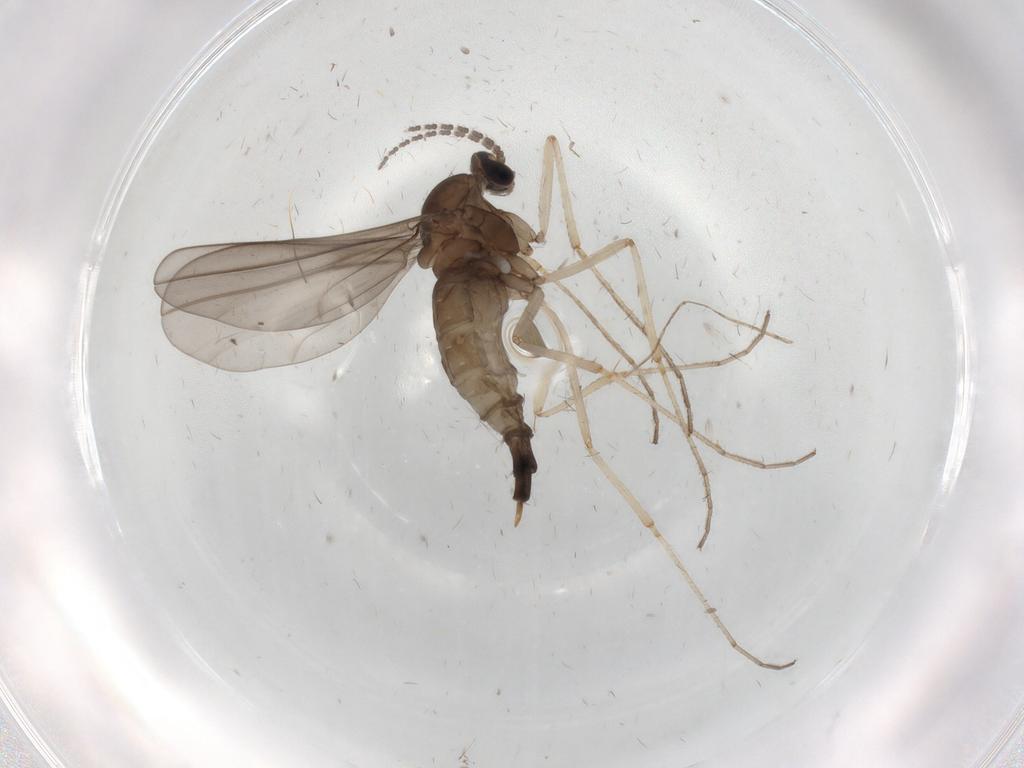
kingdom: Animalia
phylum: Arthropoda
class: Insecta
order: Diptera
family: Cecidomyiidae
